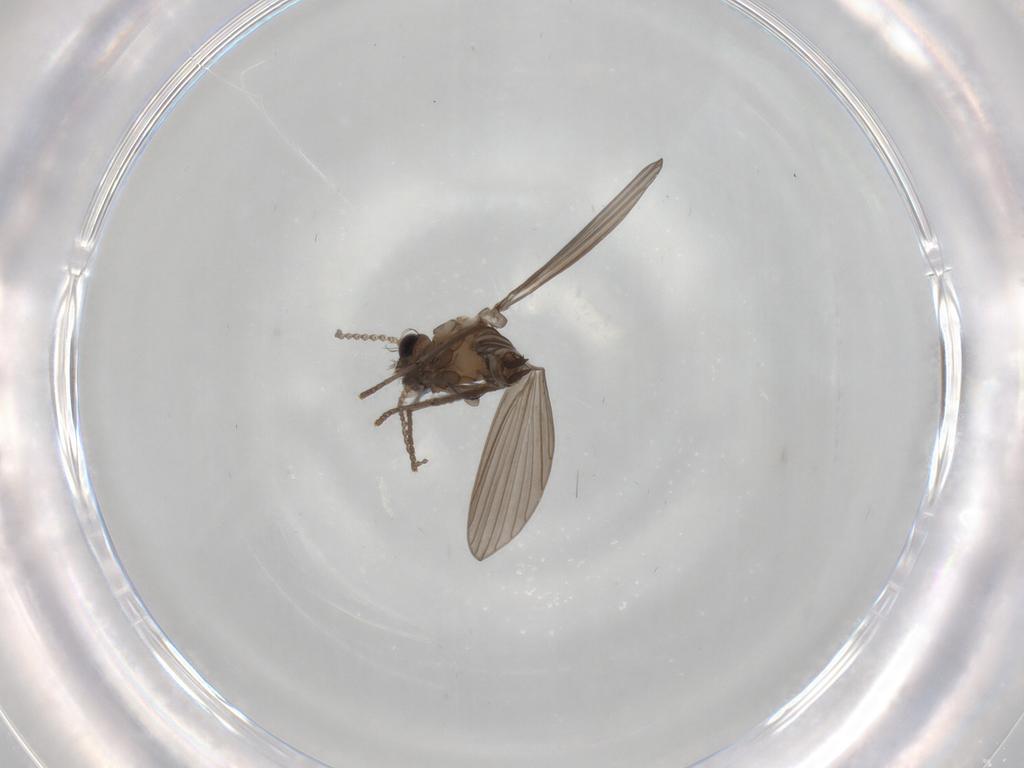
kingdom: Animalia
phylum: Arthropoda
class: Insecta
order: Diptera
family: Psychodidae
